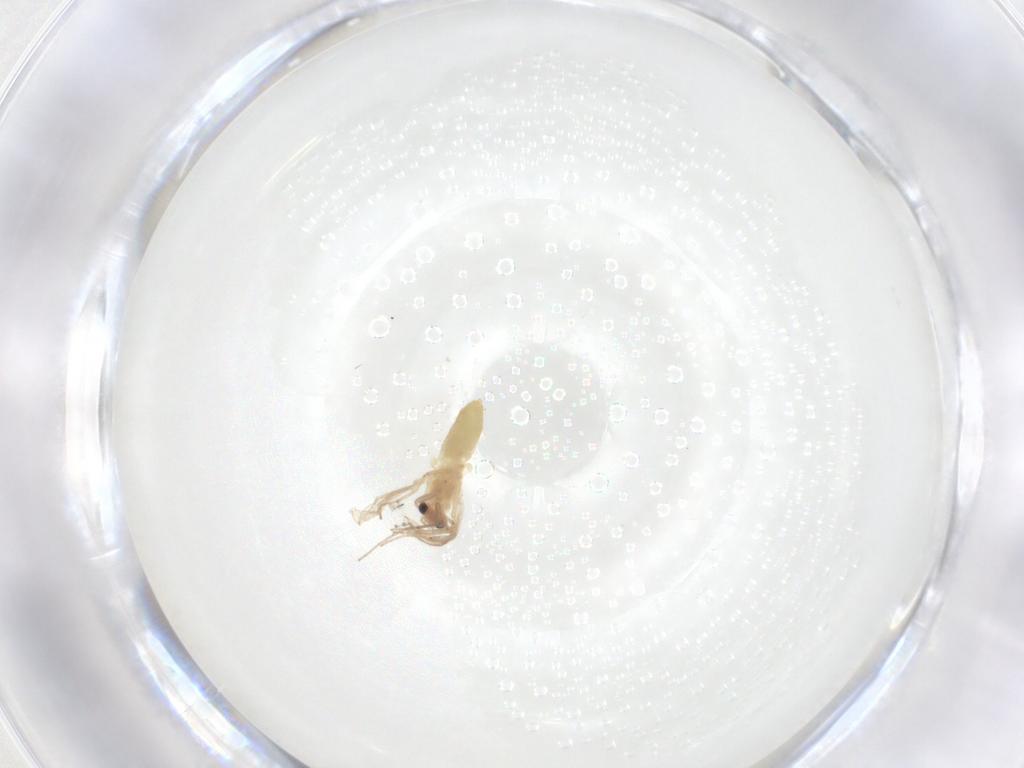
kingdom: Animalia
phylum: Arthropoda
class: Insecta
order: Diptera
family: Chironomidae
